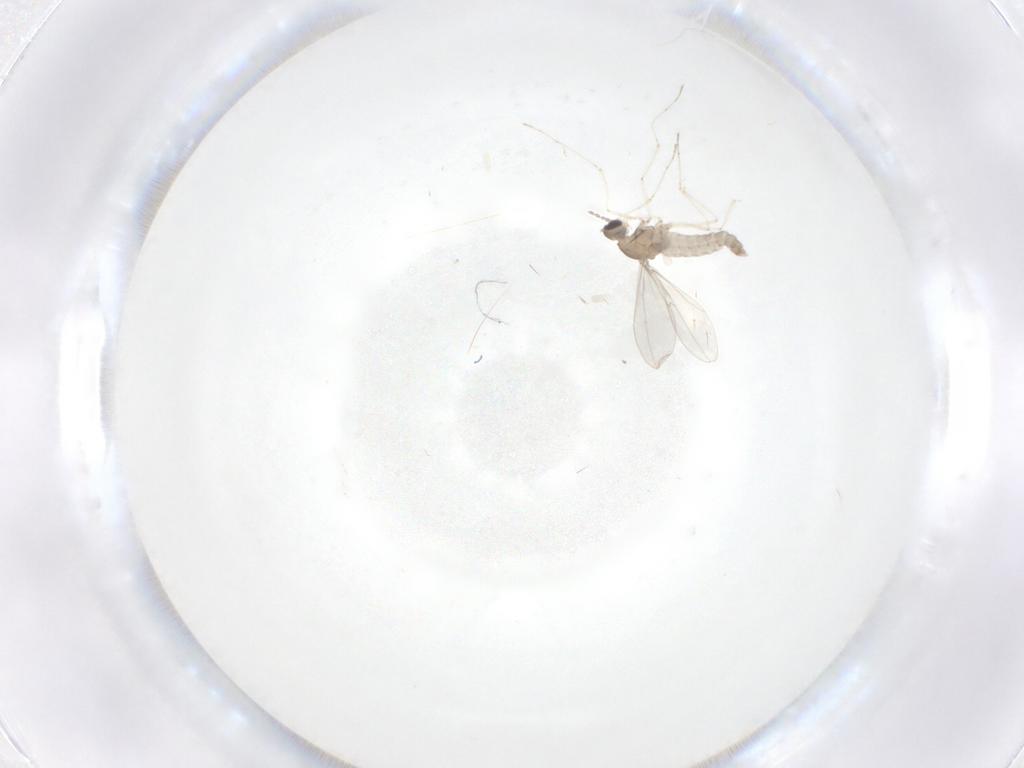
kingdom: Animalia
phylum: Arthropoda
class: Insecta
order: Diptera
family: Cecidomyiidae
